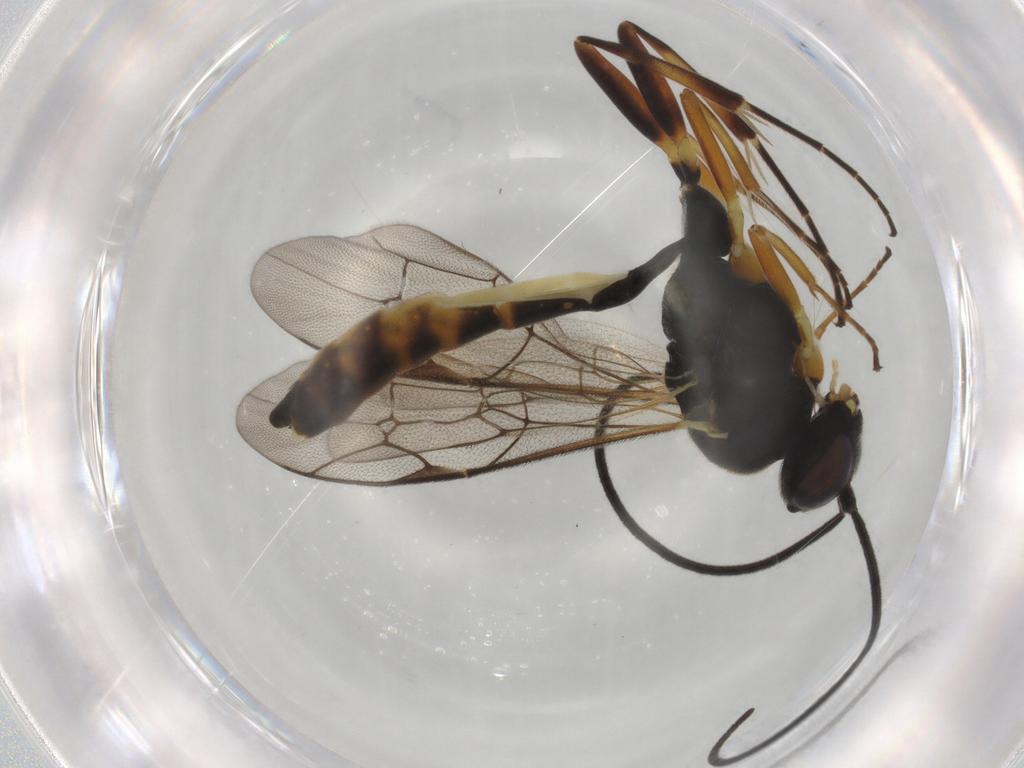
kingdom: Animalia
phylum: Arthropoda
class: Insecta
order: Hymenoptera
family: Ichneumonidae
